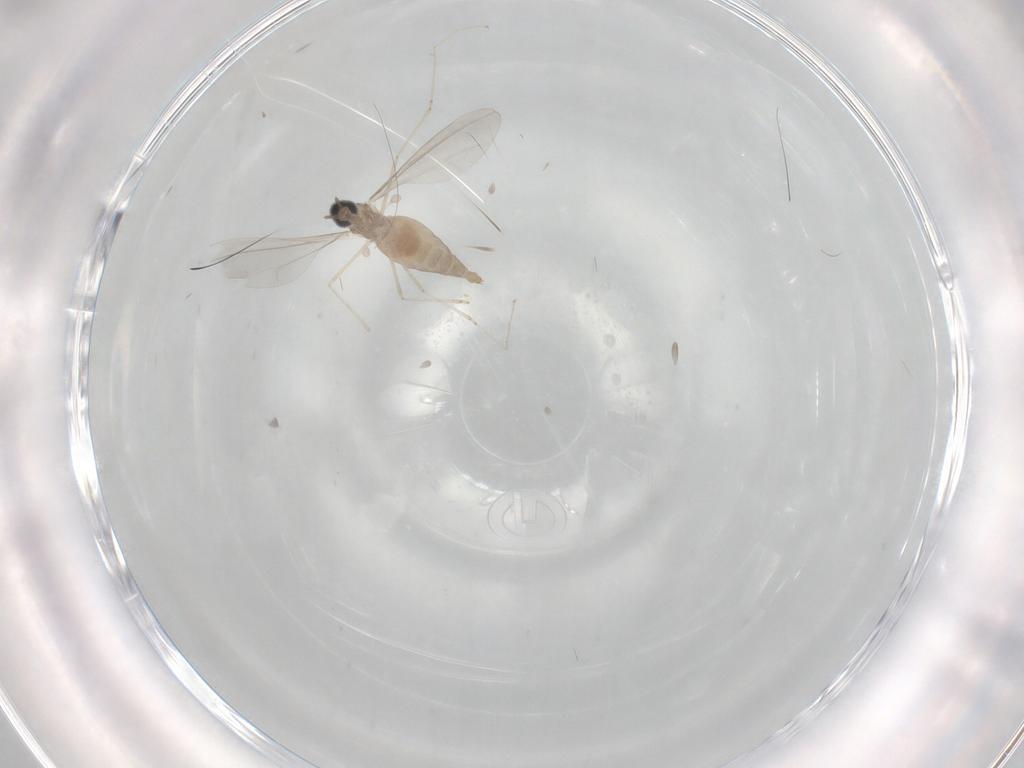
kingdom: Animalia
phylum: Arthropoda
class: Insecta
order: Diptera
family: Cecidomyiidae
